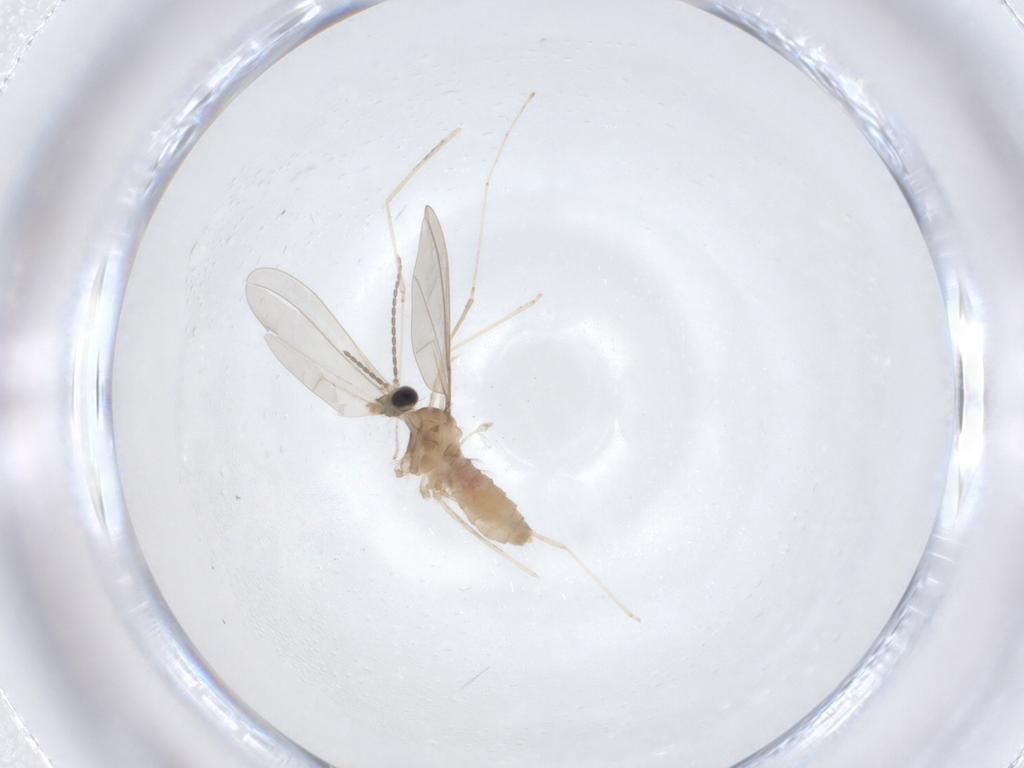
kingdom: Animalia
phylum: Arthropoda
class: Insecta
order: Diptera
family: Cecidomyiidae
